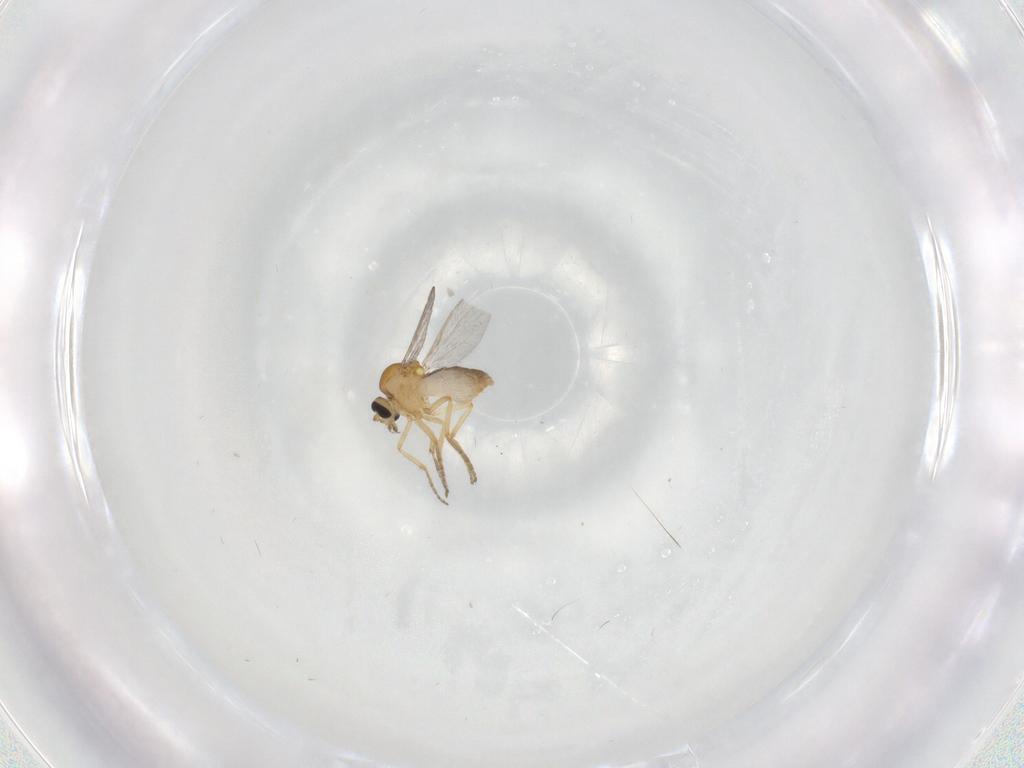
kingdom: Animalia
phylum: Arthropoda
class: Insecta
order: Diptera
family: Ceratopogonidae
